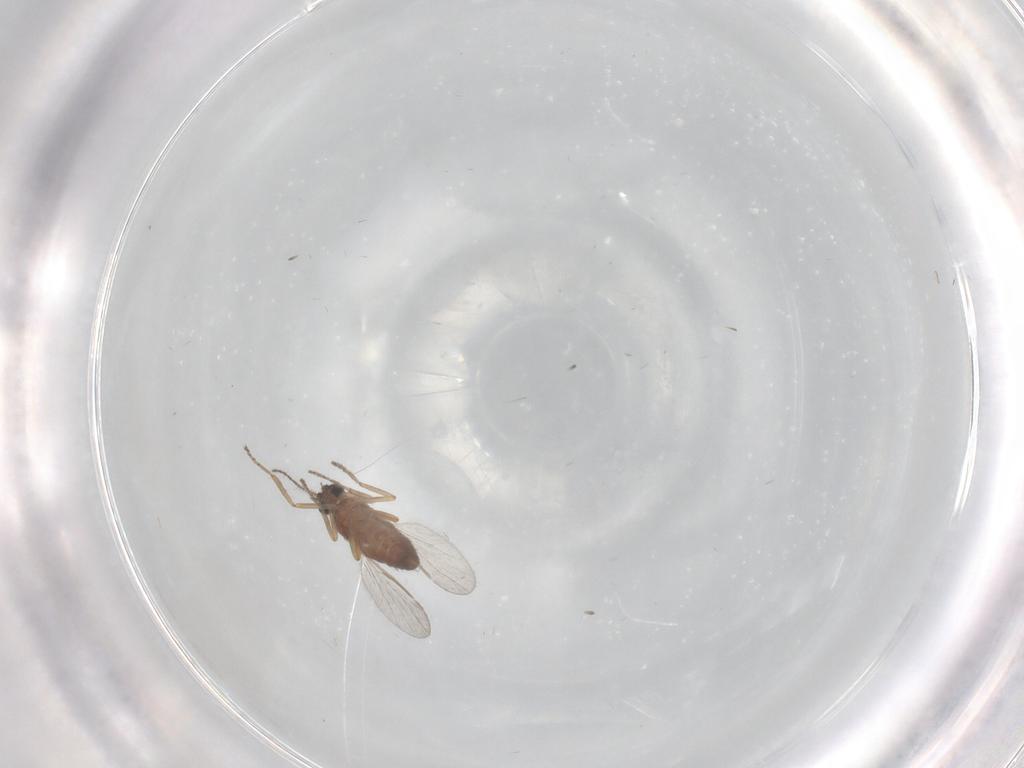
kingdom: Animalia
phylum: Arthropoda
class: Insecta
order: Diptera
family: Ceratopogonidae
